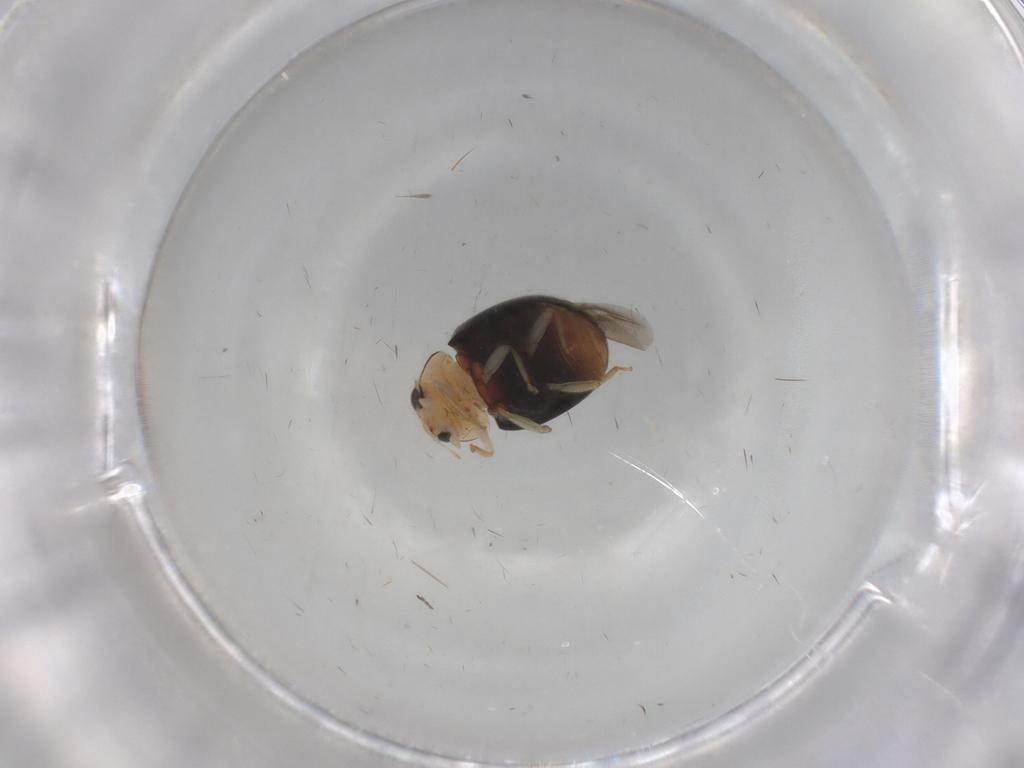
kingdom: Animalia
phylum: Arthropoda
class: Insecta
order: Coleoptera
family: Coccinellidae
